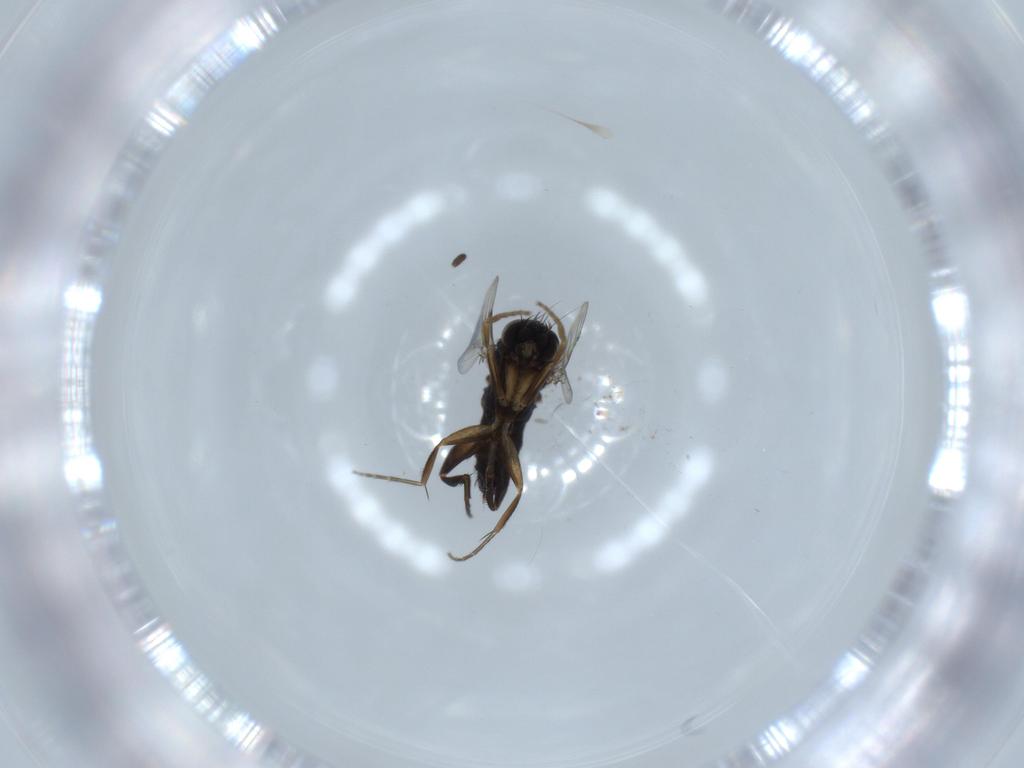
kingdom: Animalia
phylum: Arthropoda
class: Insecta
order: Diptera
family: Phoridae
